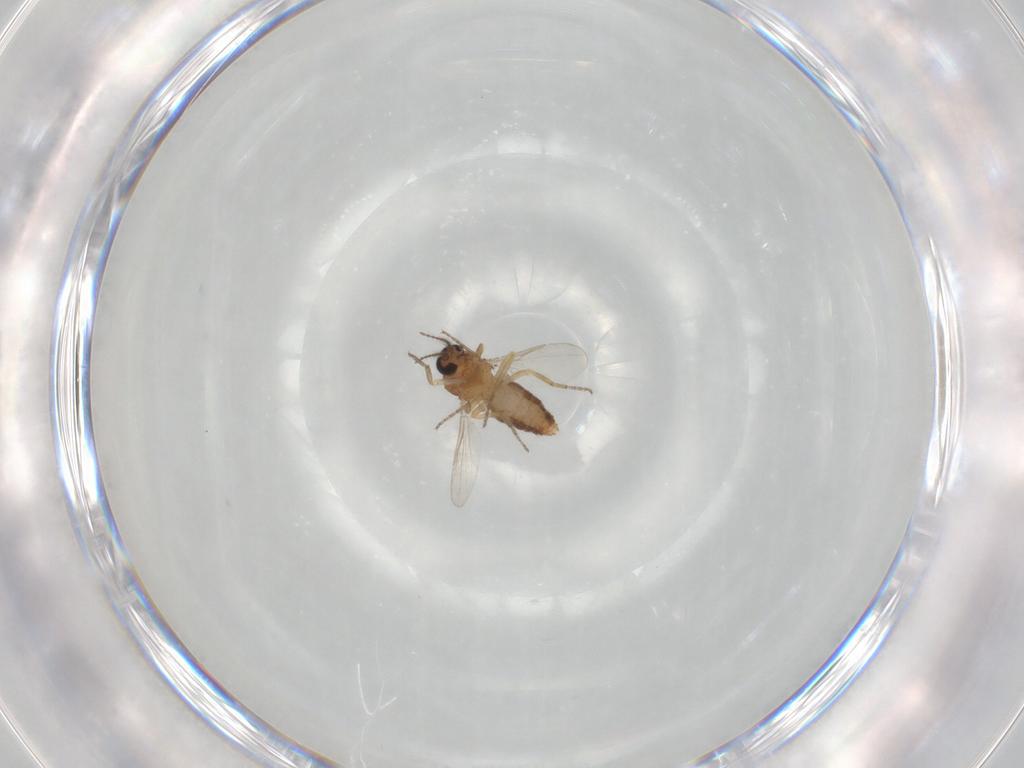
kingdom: Animalia
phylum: Arthropoda
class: Insecta
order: Diptera
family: Ceratopogonidae
